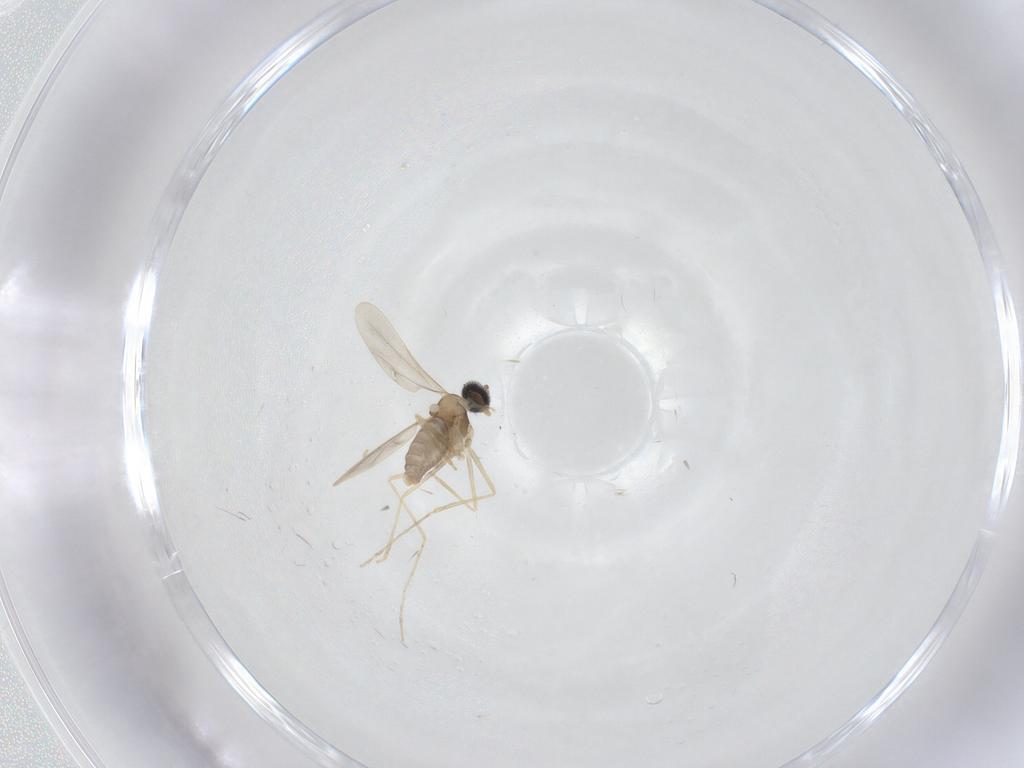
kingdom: Animalia
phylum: Arthropoda
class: Insecta
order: Diptera
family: Cecidomyiidae
